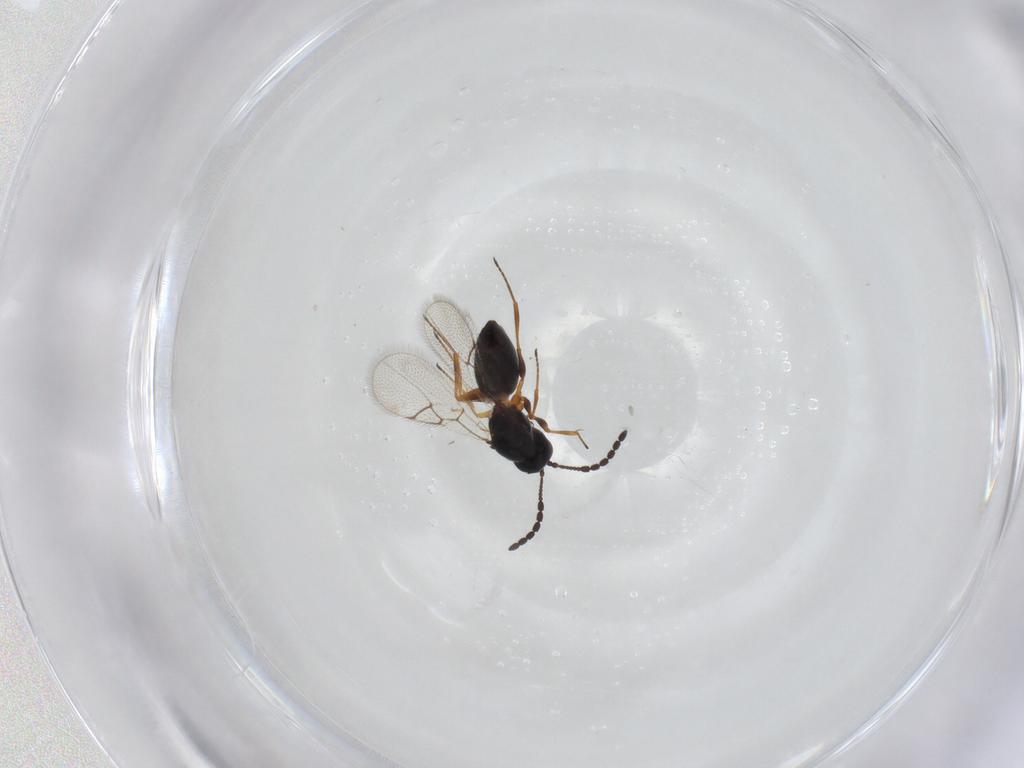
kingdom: Animalia
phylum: Arthropoda
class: Insecta
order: Hymenoptera
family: Figitidae
